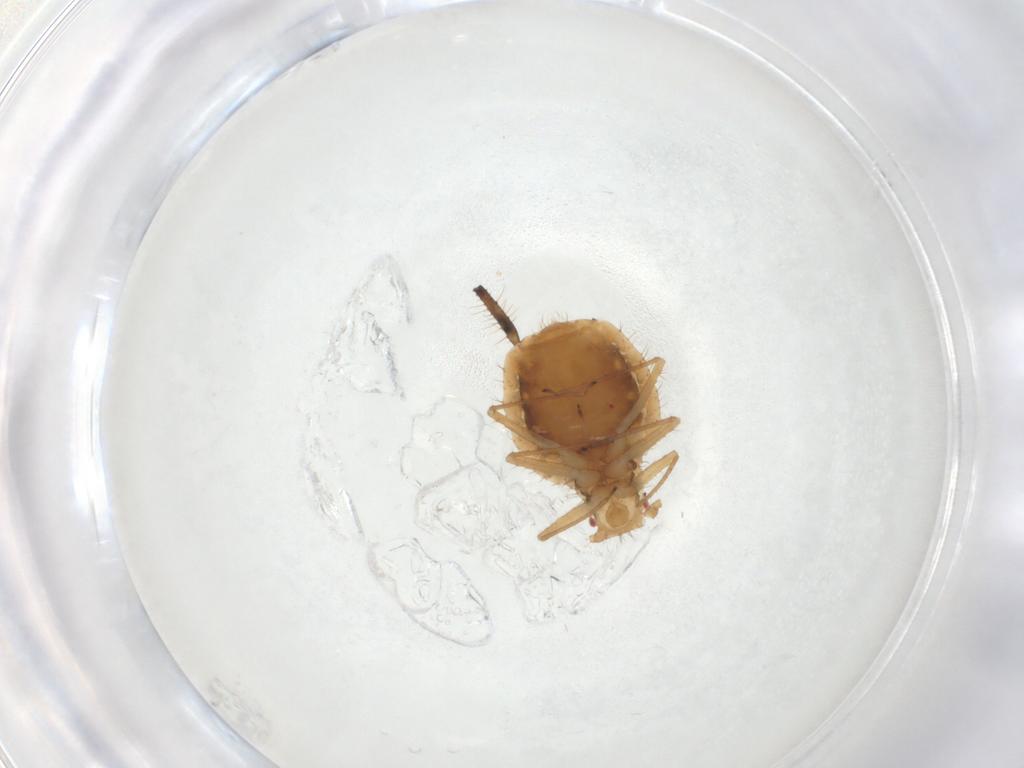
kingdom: Animalia
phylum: Arthropoda
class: Insecta
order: Hemiptera
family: Aphididae
